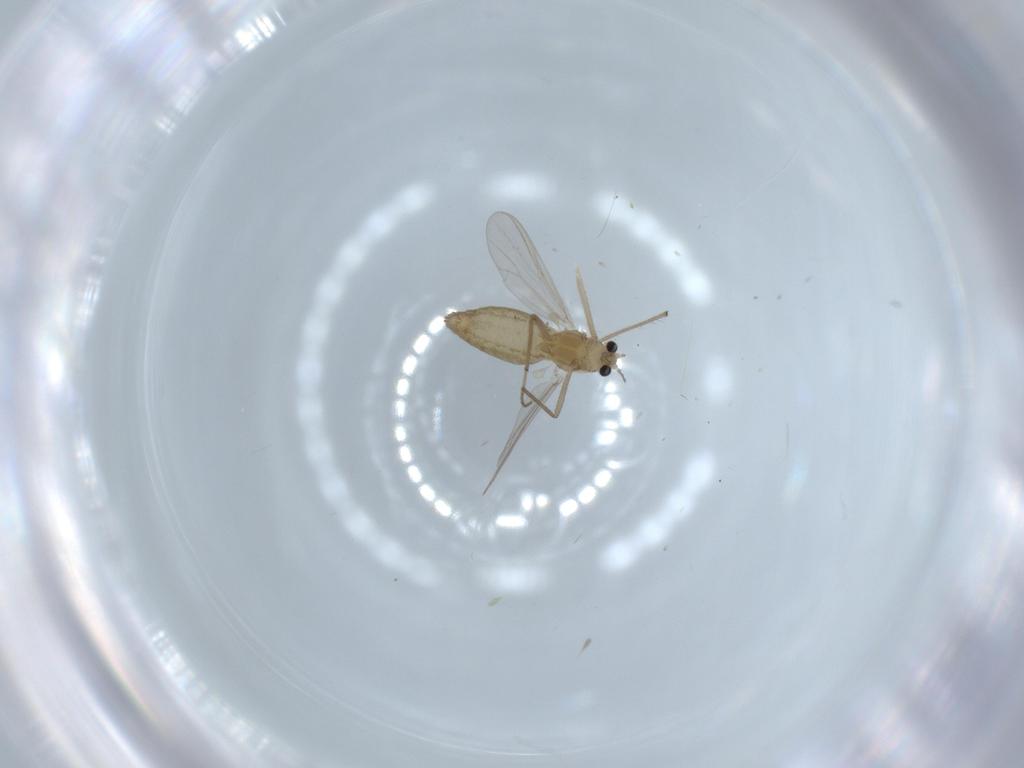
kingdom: Animalia
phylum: Arthropoda
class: Insecta
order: Diptera
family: Chironomidae
